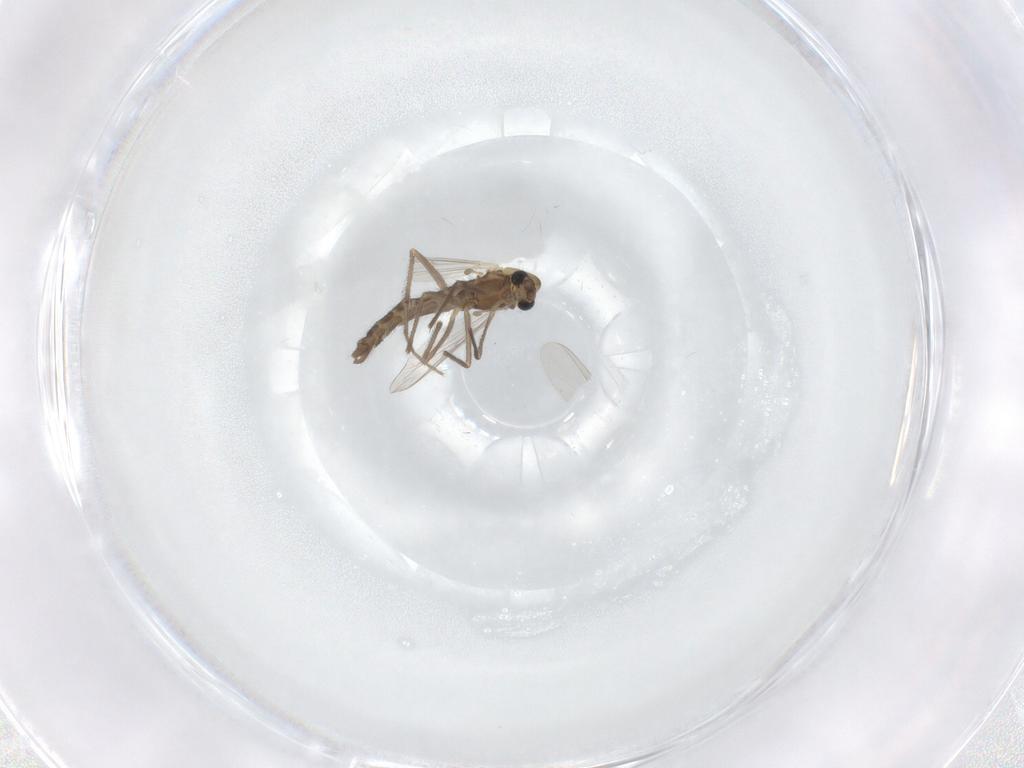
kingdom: Animalia
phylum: Arthropoda
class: Insecta
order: Diptera
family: Chironomidae
